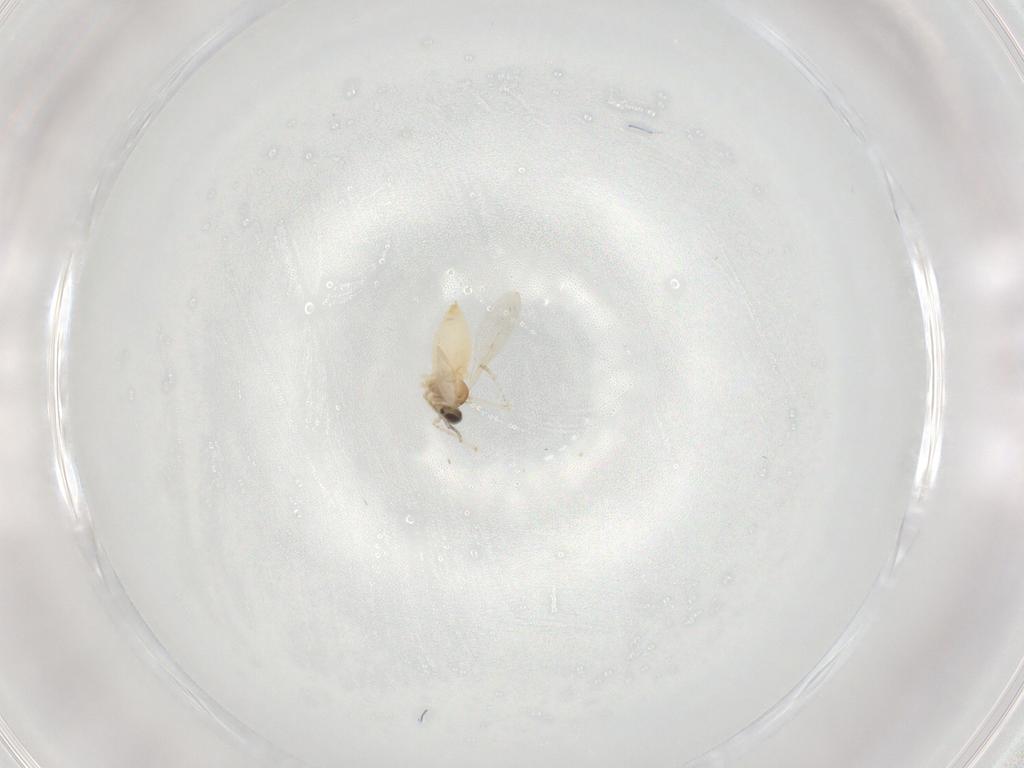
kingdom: Animalia
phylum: Arthropoda
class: Insecta
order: Diptera
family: Cecidomyiidae
